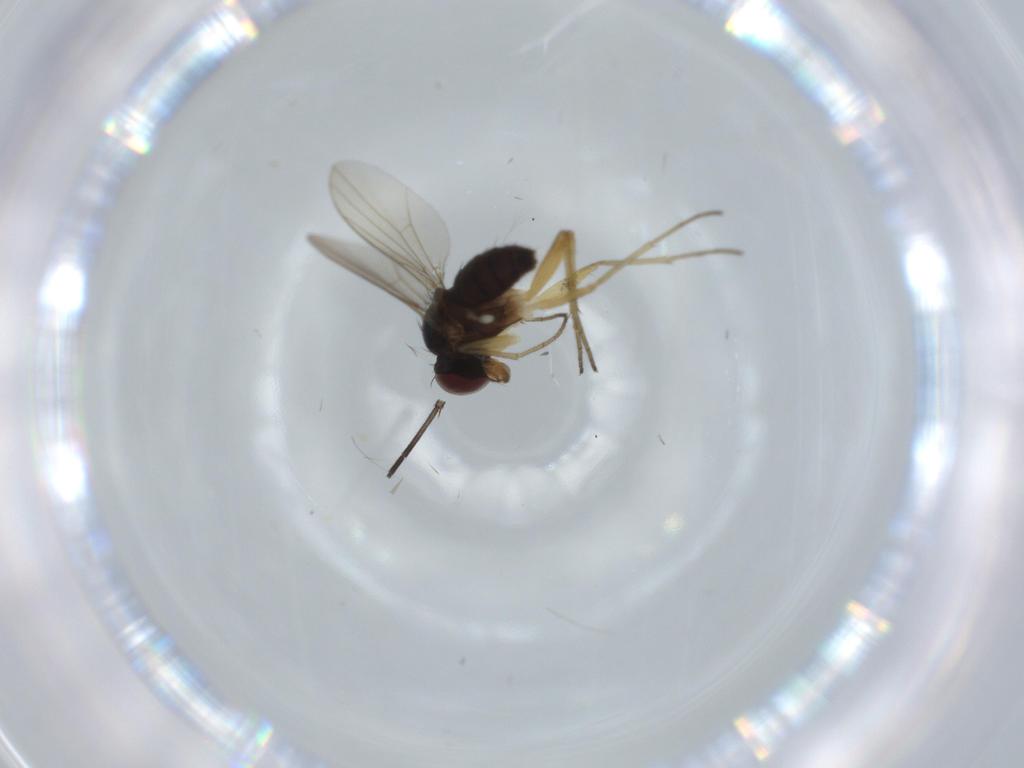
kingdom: Animalia
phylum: Arthropoda
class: Insecta
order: Diptera
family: Sciaridae
